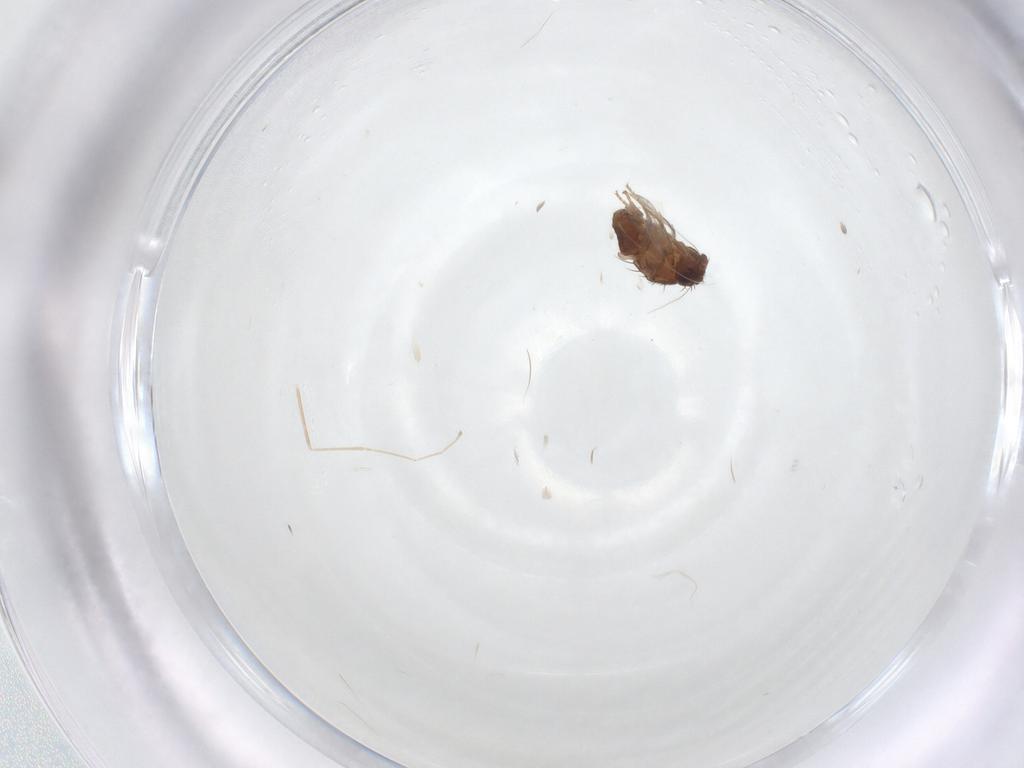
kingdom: Animalia
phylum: Arthropoda
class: Insecta
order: Diptera
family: Sphaeroceridae
